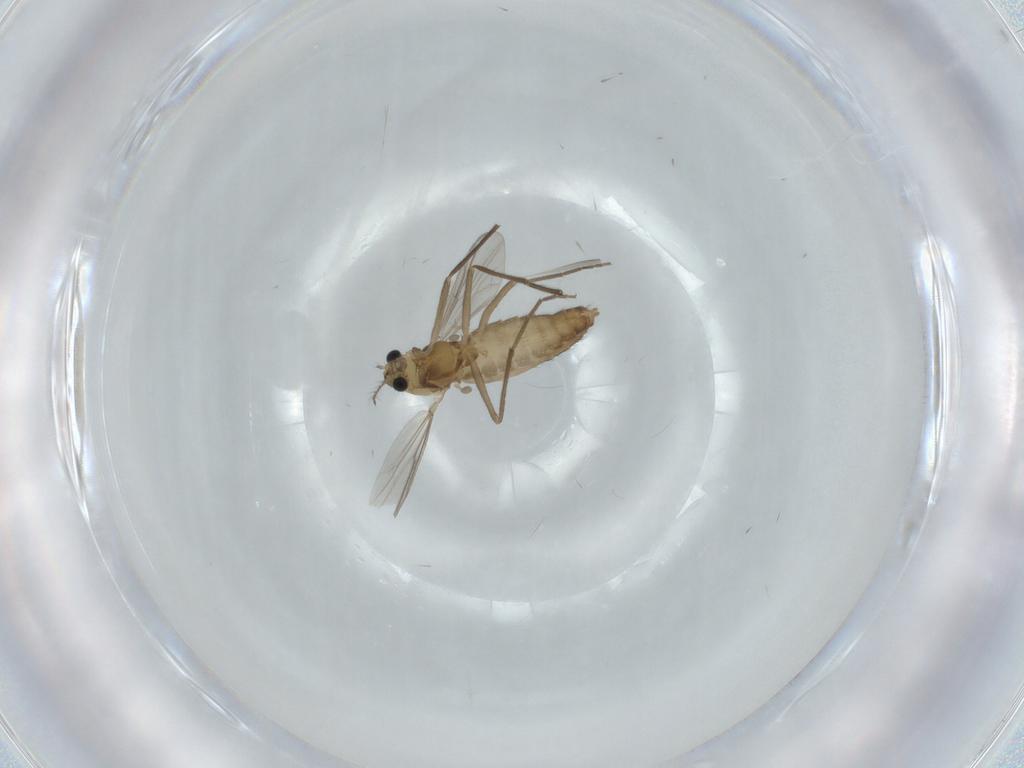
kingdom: Animalia
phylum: Arthropoda
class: Insecta
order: Diptera
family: Chironomidae
